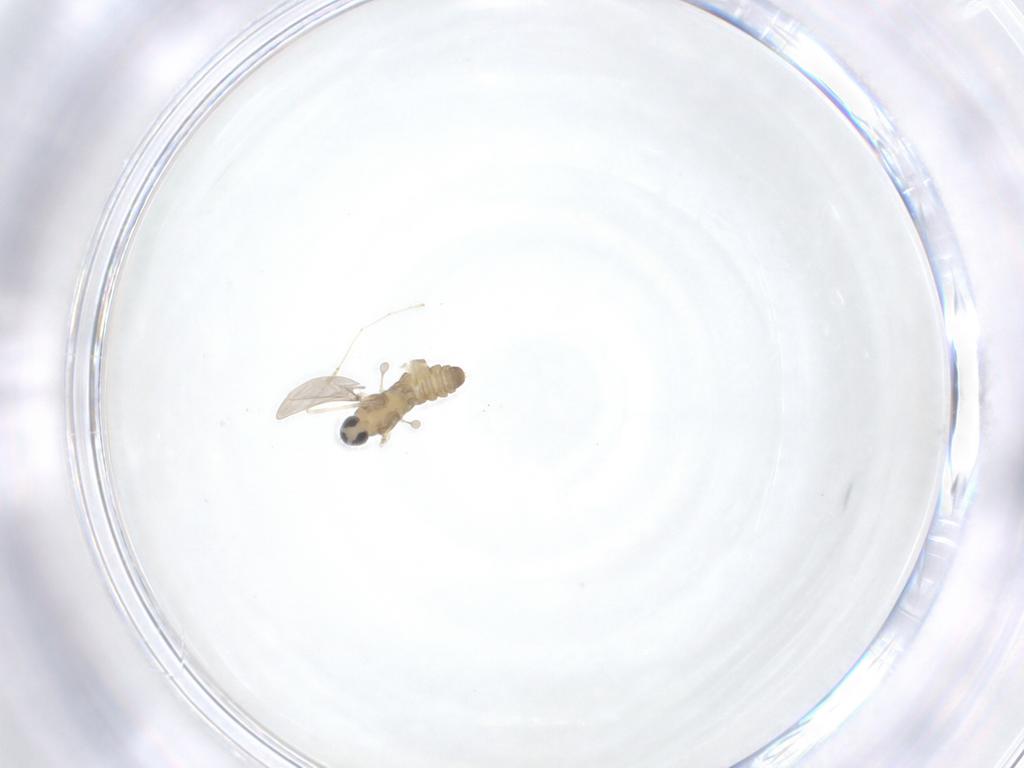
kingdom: Animalia
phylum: Arthropoda
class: Insecta
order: Diptera
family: Cecidomyiidae
